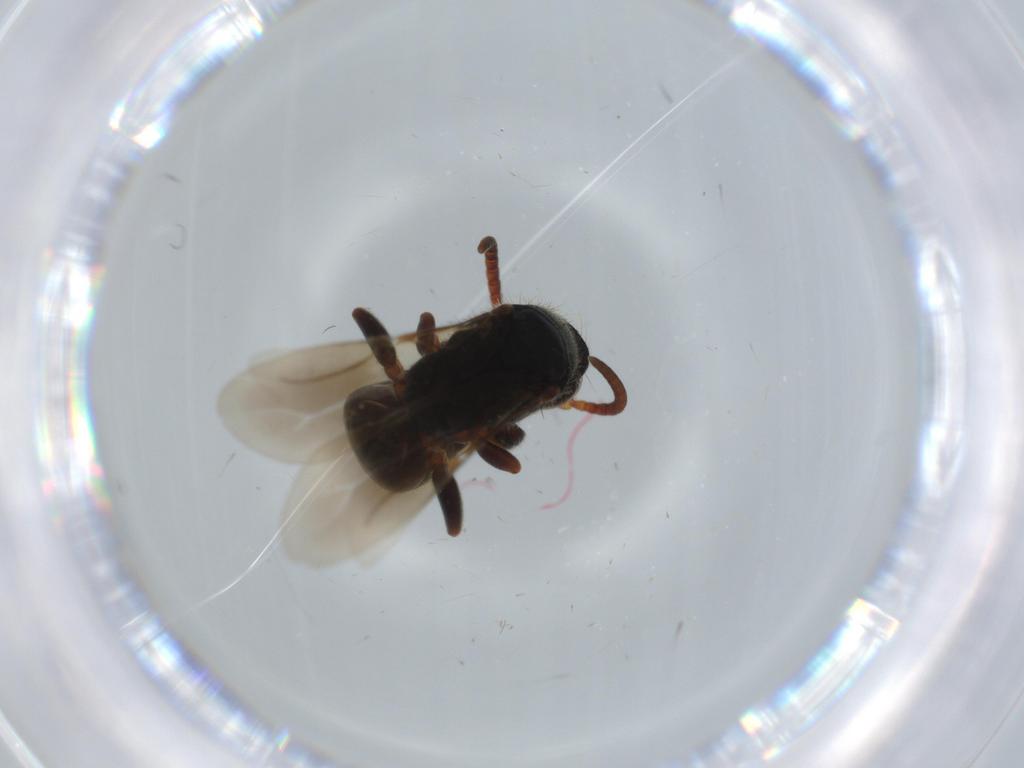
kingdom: Animalia
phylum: Arthropoda
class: Insecta
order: Hymenoptera
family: Bethylidae
